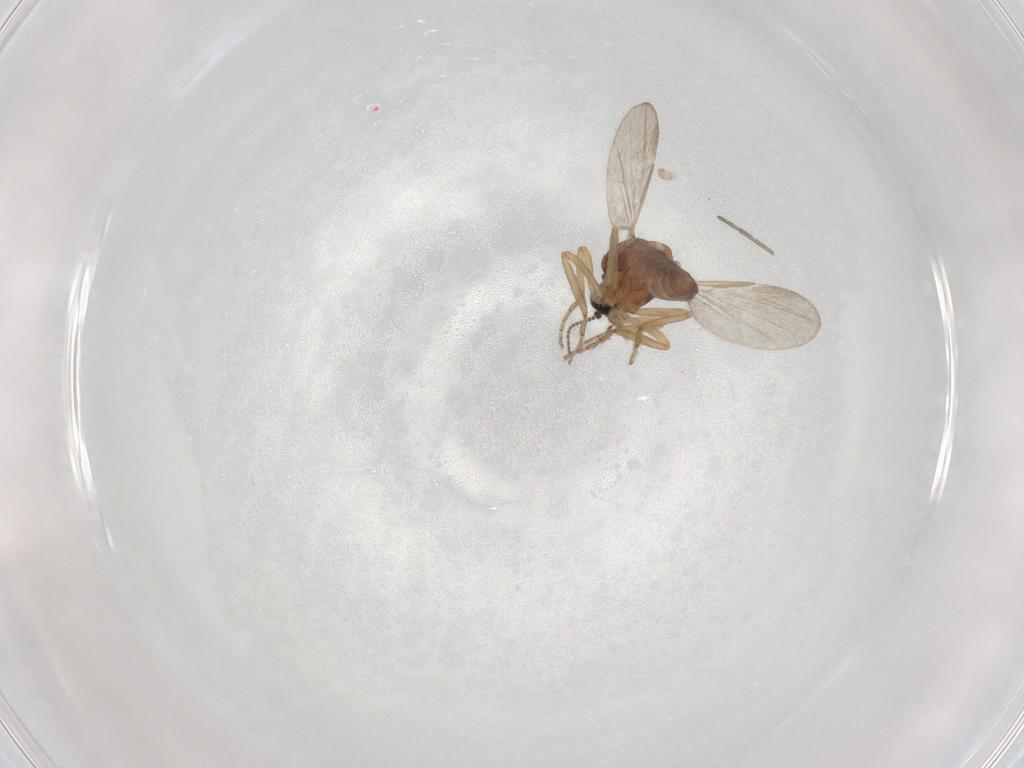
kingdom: Animalia
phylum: Arthropoda
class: Insecta
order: Diptera
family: Ceratopogonidae
